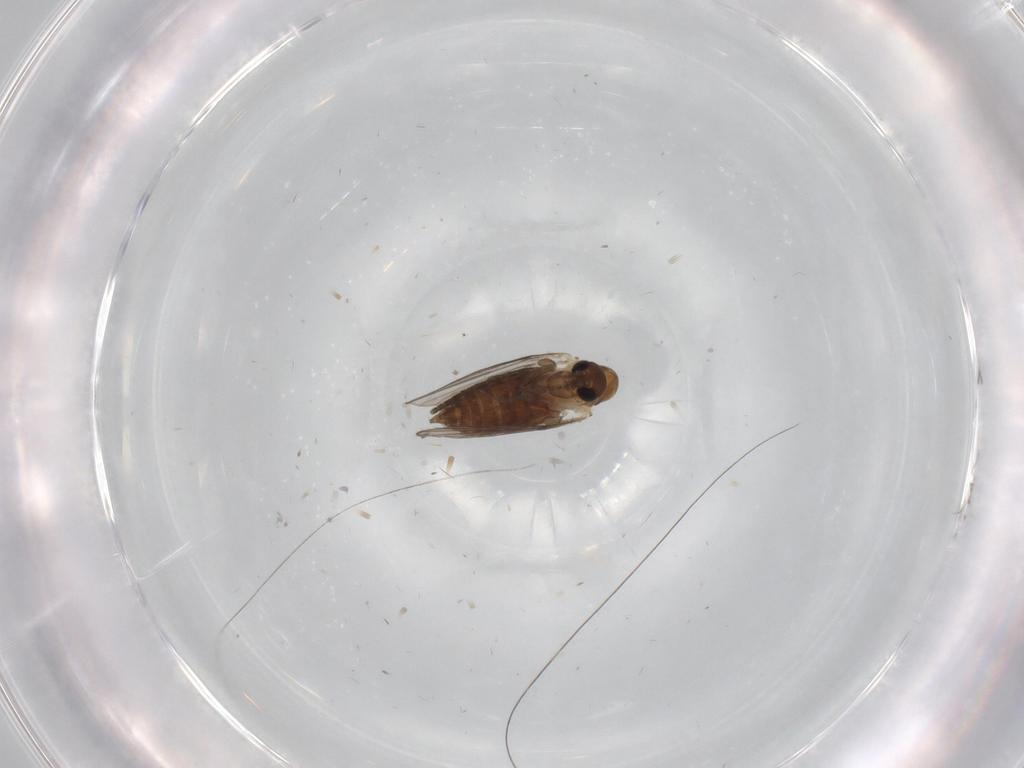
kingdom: Animalia
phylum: Arthropoda
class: Insecta
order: Diptera
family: Psychodidae
